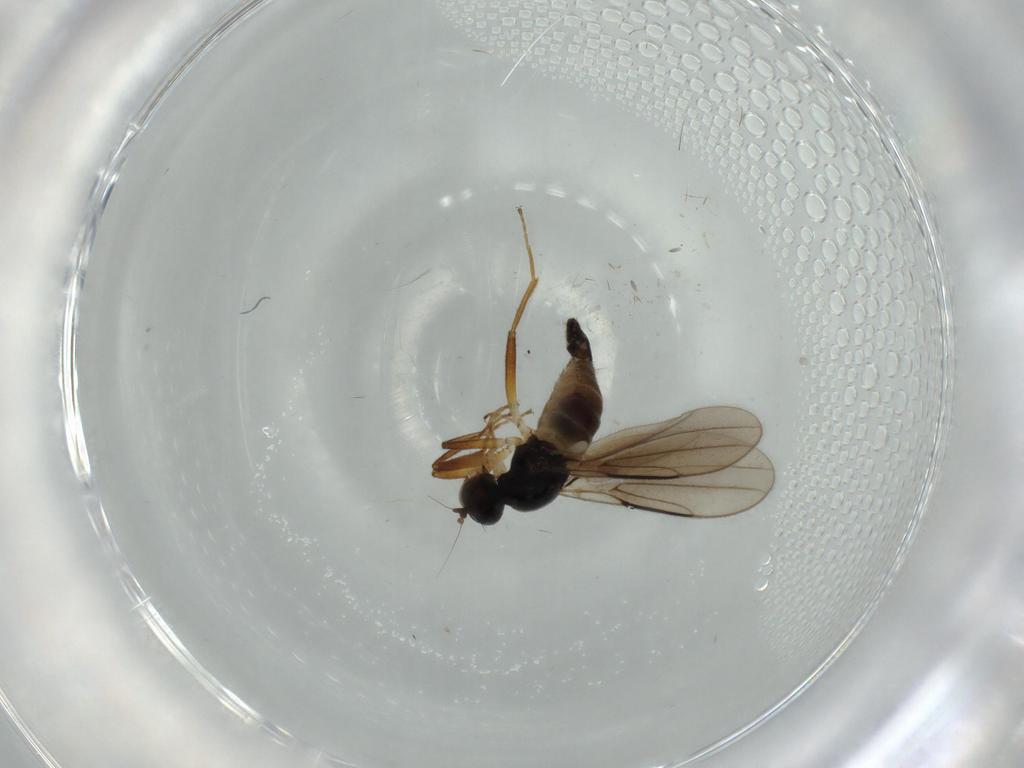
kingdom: Animalia
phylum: Arthropoda
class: Insecta
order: Diptera
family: Hybotidae
